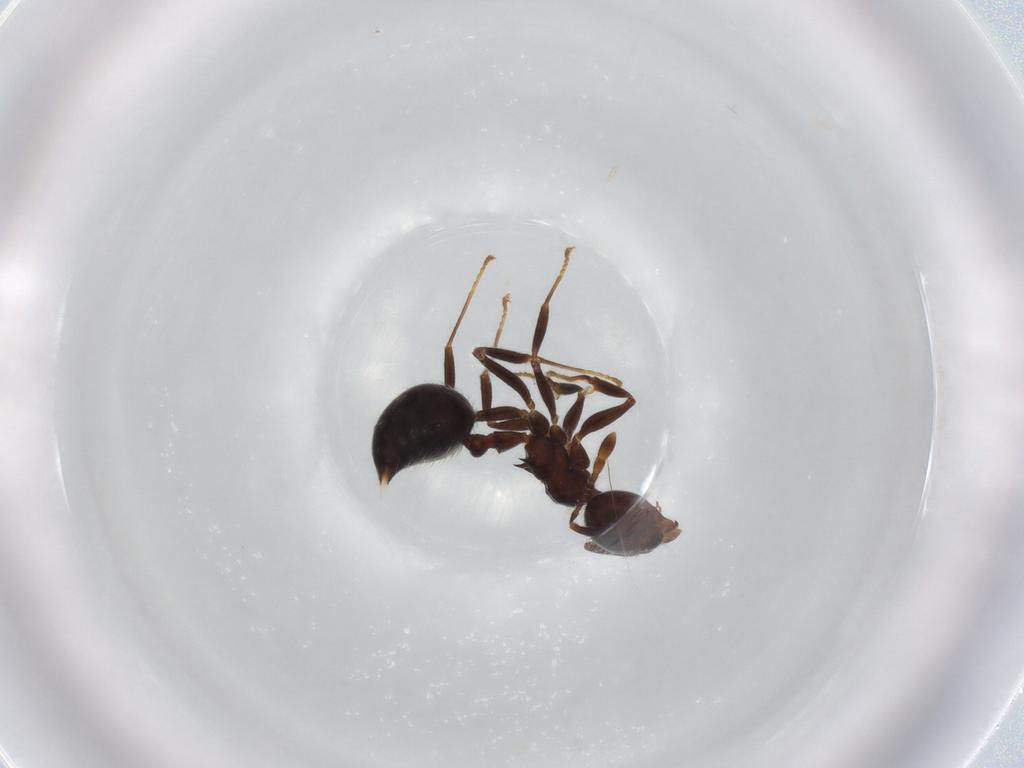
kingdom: Animalia
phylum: Arthropoda
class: Insecta
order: Hymenoptera
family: Formicidae
